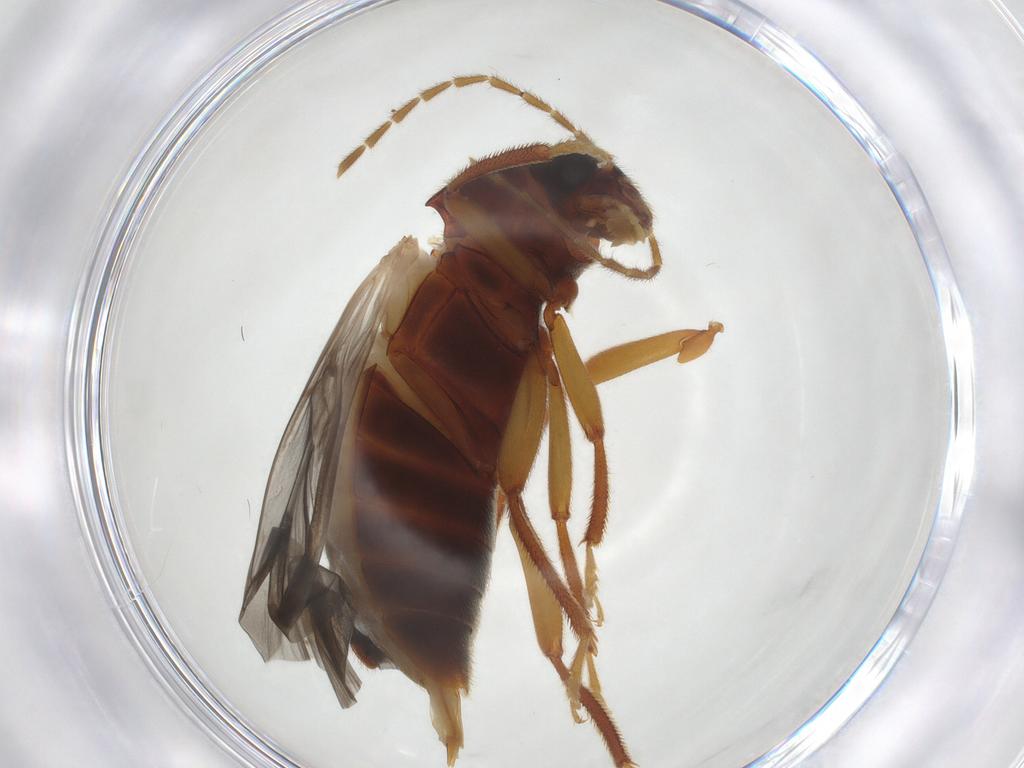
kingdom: Animalia
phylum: Arthropoda
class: Insecta
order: Coleoptera
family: Ptilodactylidae
